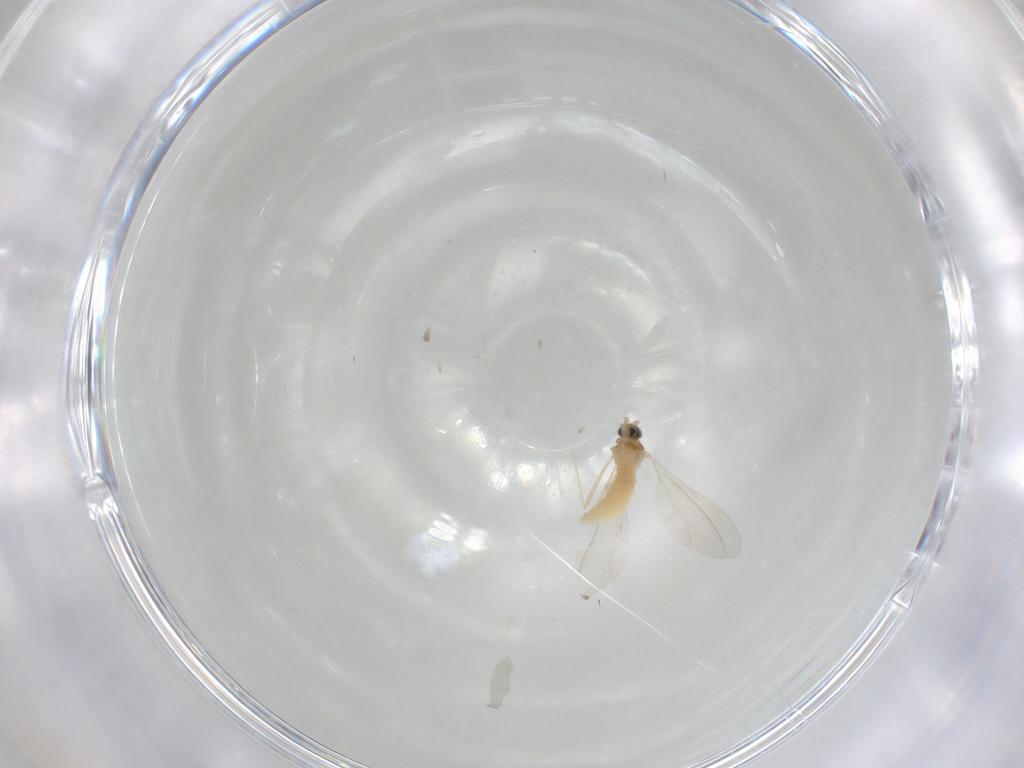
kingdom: Animalia
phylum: Arthropoda
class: Insecta
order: Diptera
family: Cecidomyiidae
